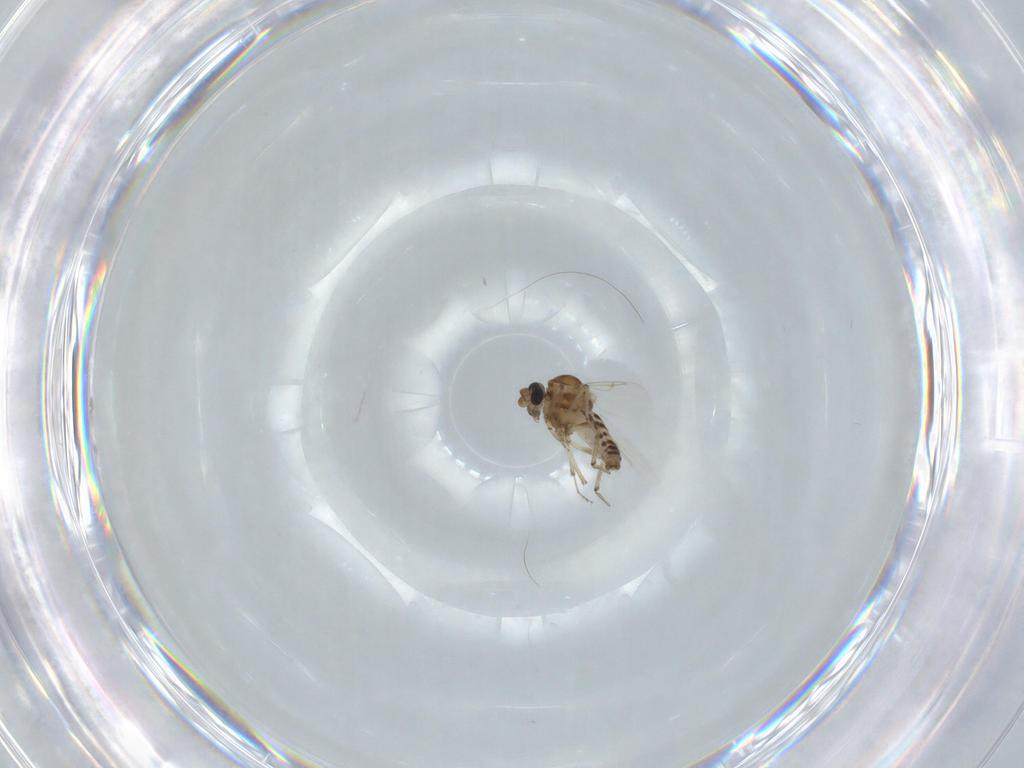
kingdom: Animalia
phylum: Arthropoda
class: Insecta
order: Diptera
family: Ceratopogonidae
